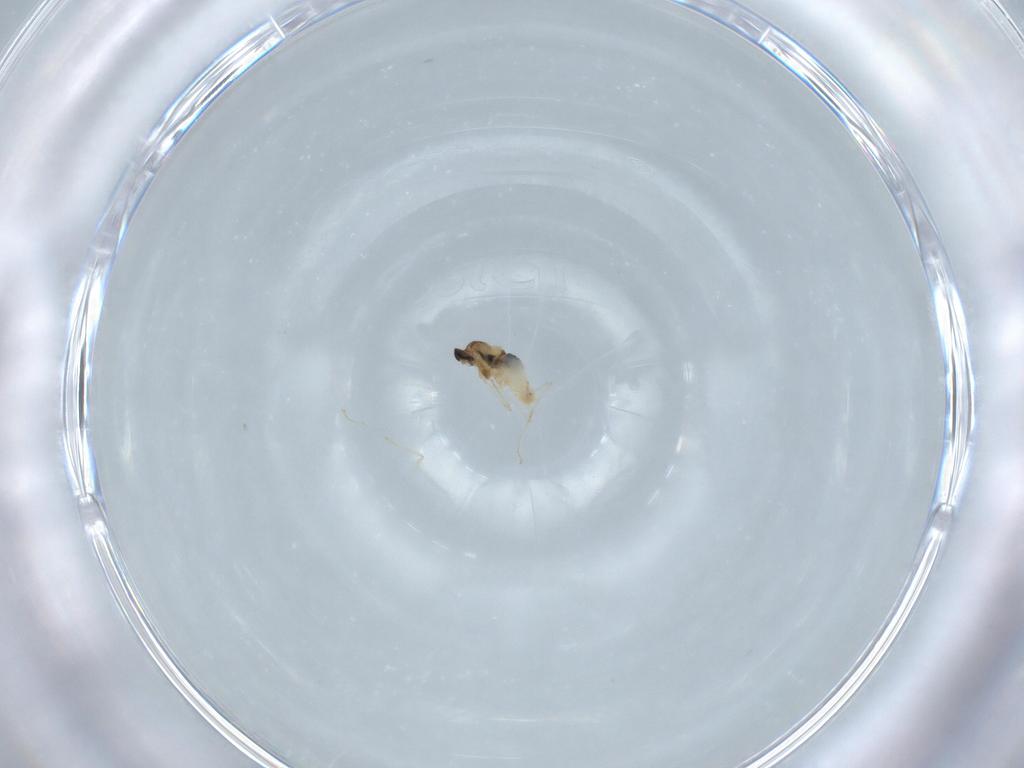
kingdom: Animalia
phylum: Arthropoda
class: Insecta
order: Diptera
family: Cecidomyiidae
